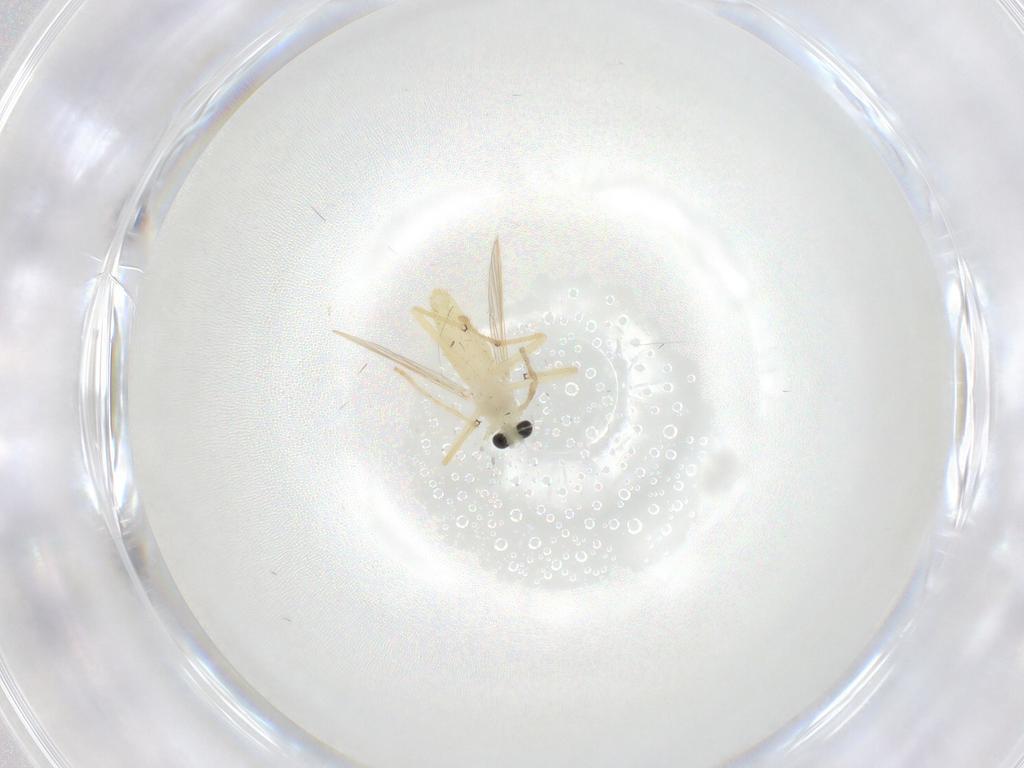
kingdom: Animalia
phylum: Arthropoda
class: Insecta
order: Diptera
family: Chironomidae
